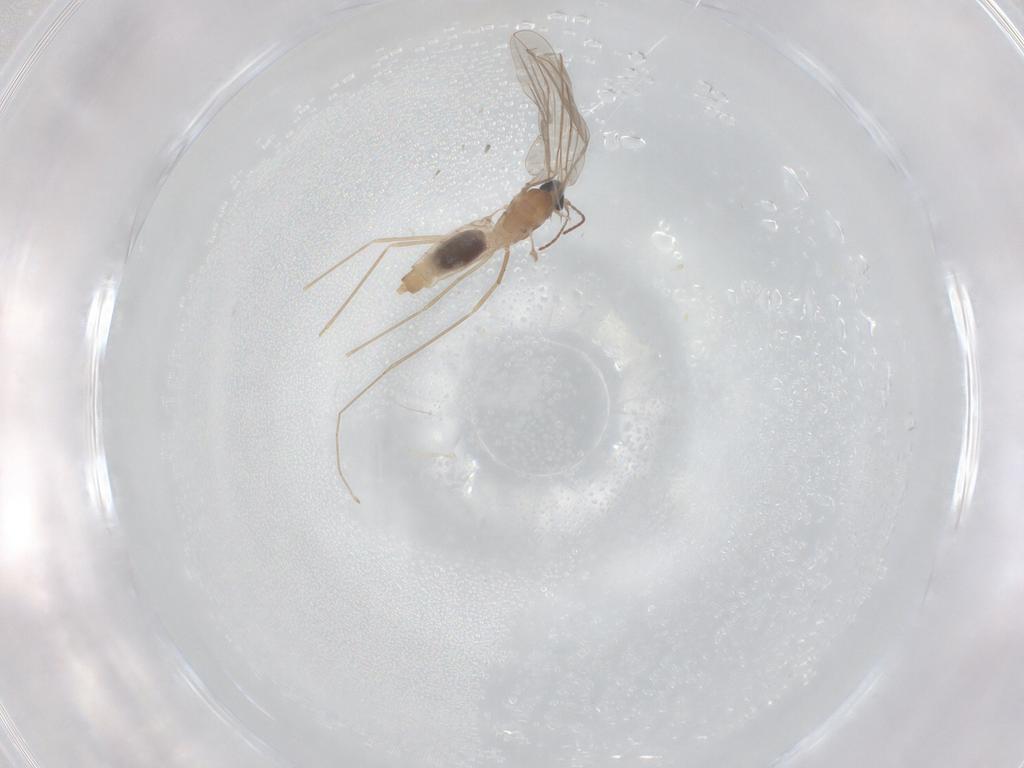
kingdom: Animalia
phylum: Arthropoda
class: Insecta
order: Diptera
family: Cecidomyiidae
